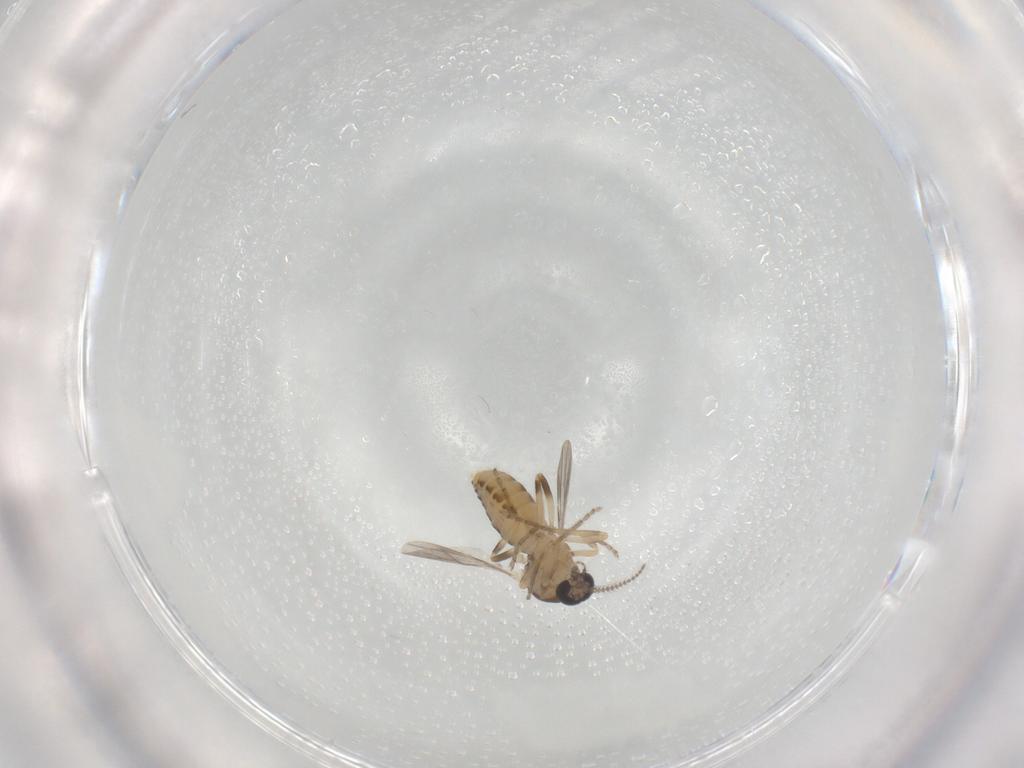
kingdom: Animalia
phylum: Arthropoda
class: Insecta
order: Diptera
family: Ceratopogonidae
